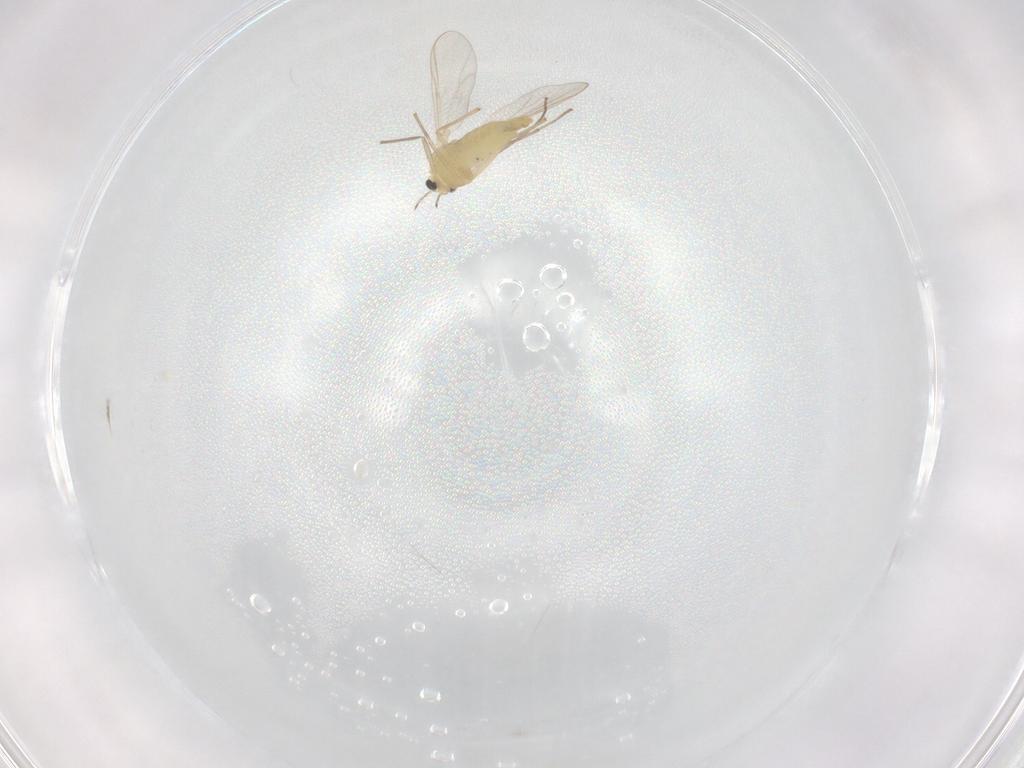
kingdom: Animalia
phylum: Arthropoda
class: Insecta
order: Diptera
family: Chironomidae
